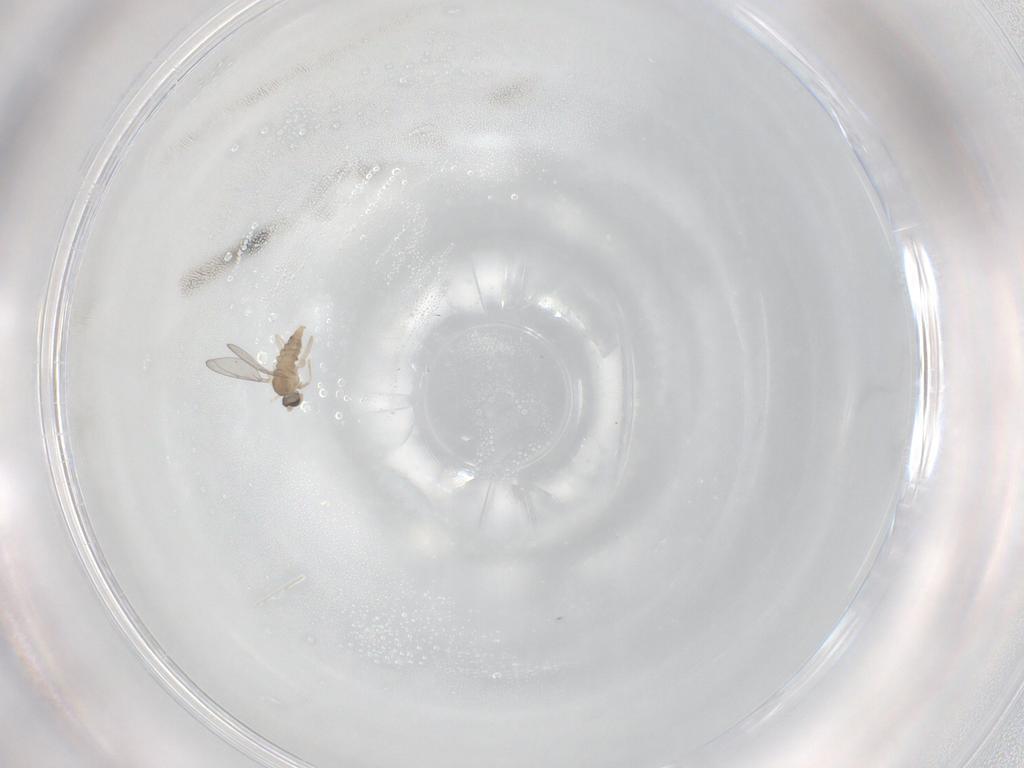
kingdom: Animalia
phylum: Arthropoda
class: Insecta
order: Diptera
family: Cecidomyiidae
